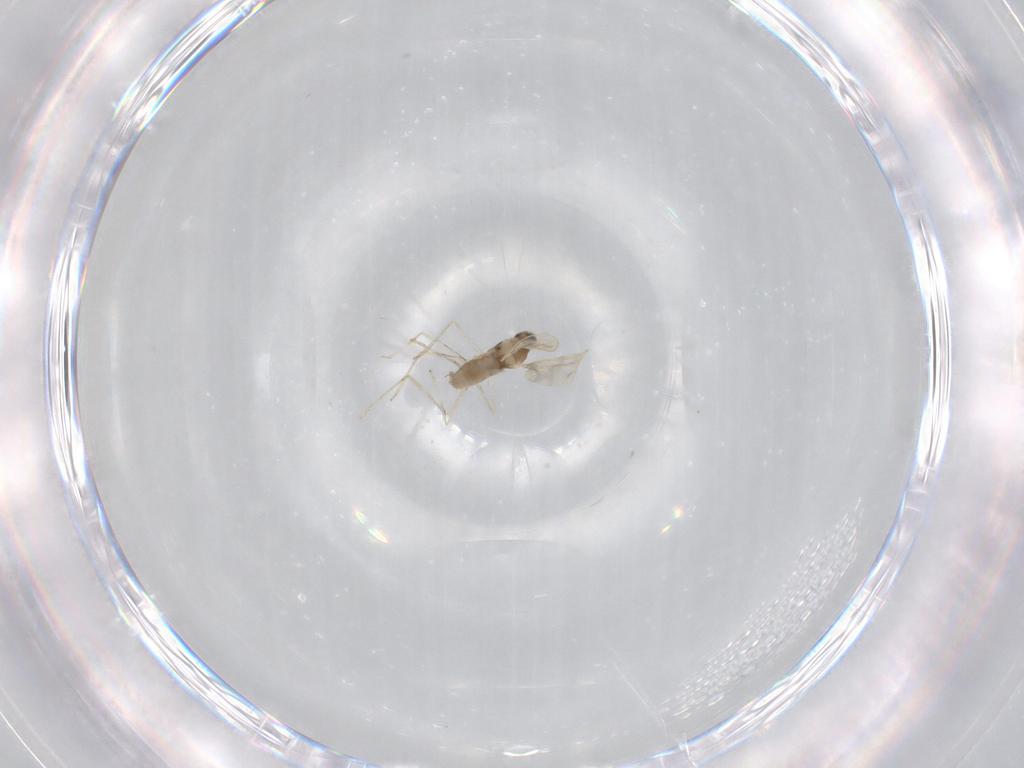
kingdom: Animalia
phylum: Arthropoda
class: Insecta
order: Diptera
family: Cecidomyiidae
